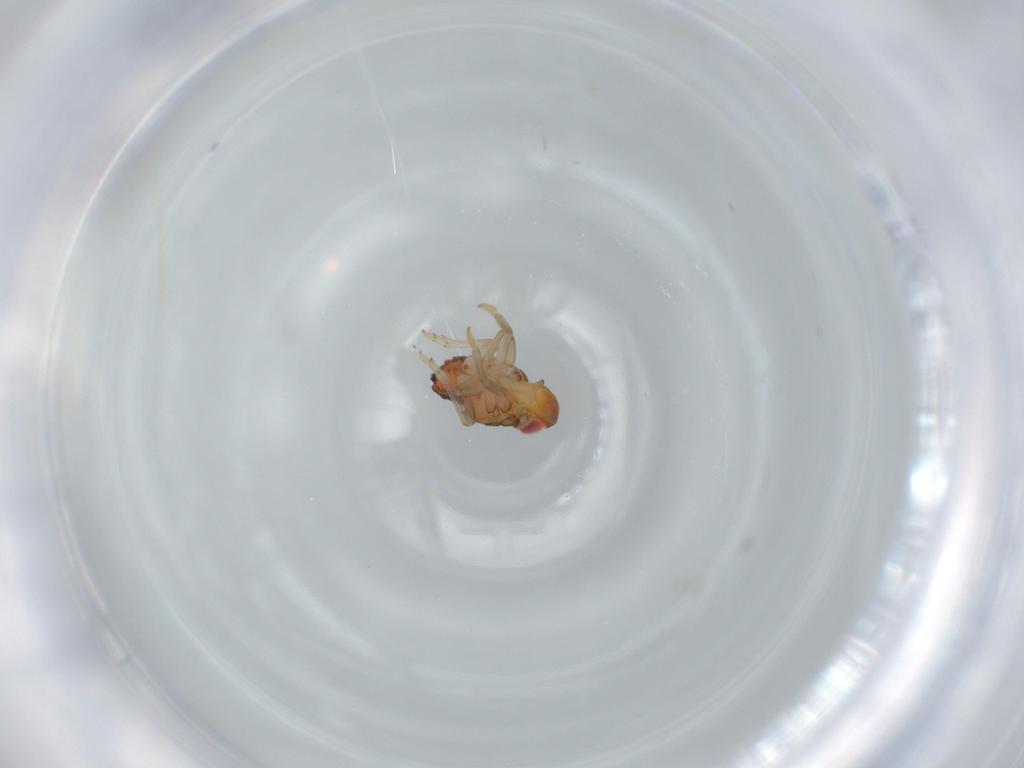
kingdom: Animalia
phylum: Arthropoda
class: Insecta
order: Hemiptera
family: Issidae
